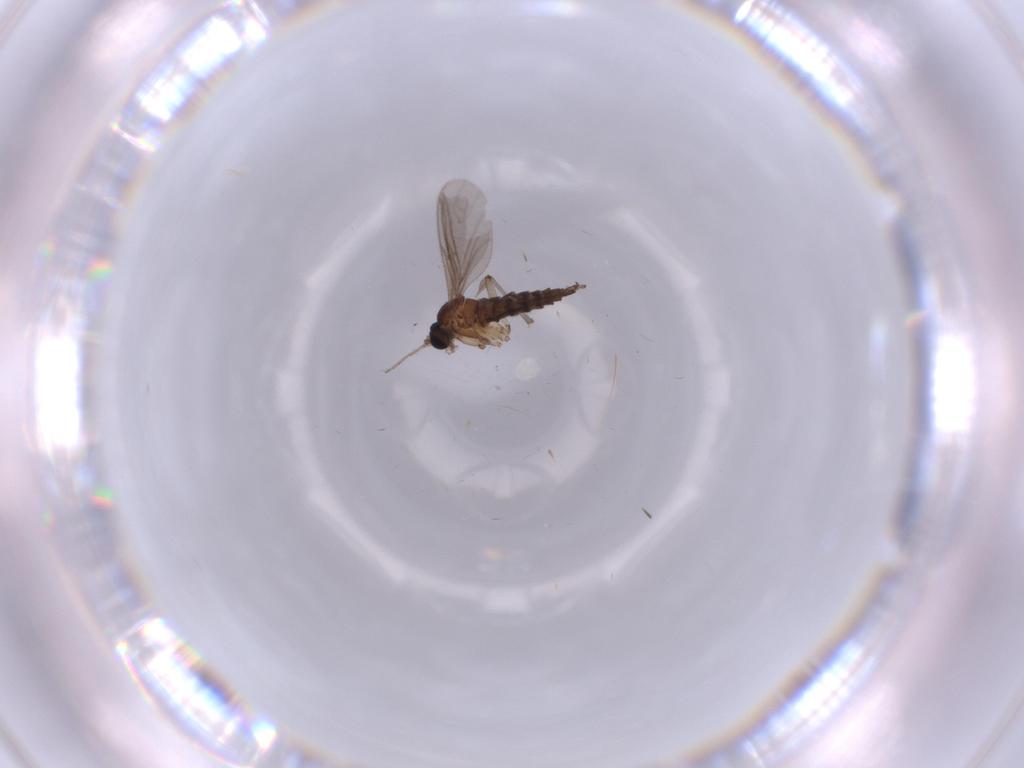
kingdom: Animalia
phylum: Arthropoda
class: Insecta
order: Diptera
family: Sciaridae
